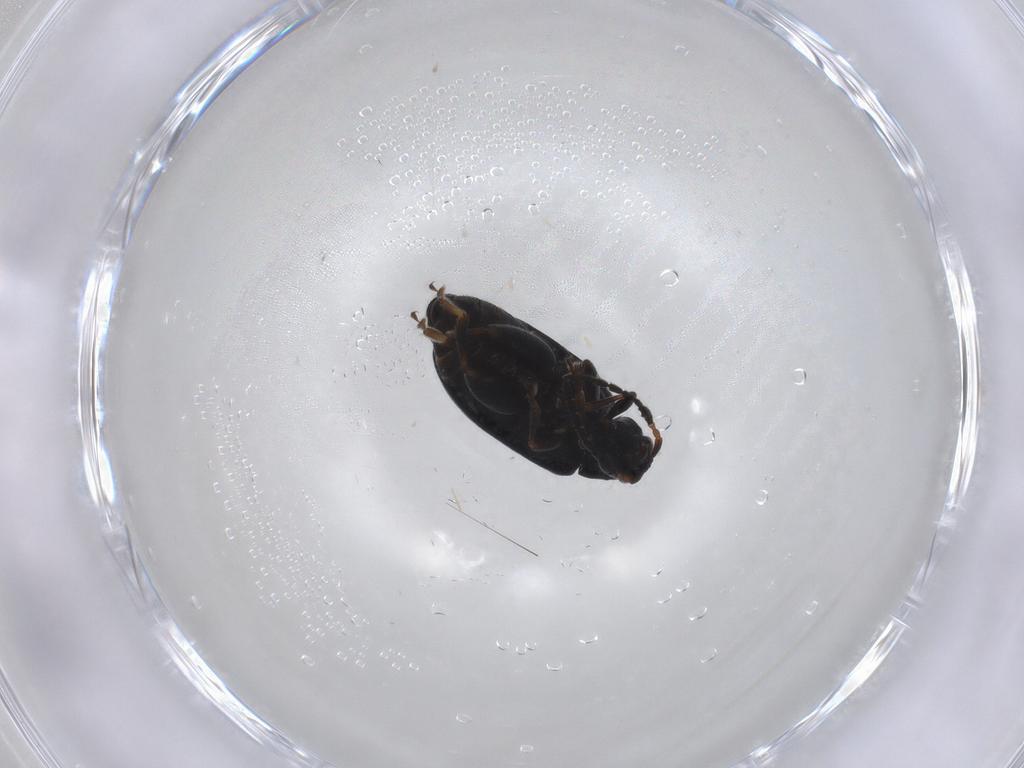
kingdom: Animalia
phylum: Arthropoda
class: Insecta
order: Coleoptera
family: Chrysomelidae
